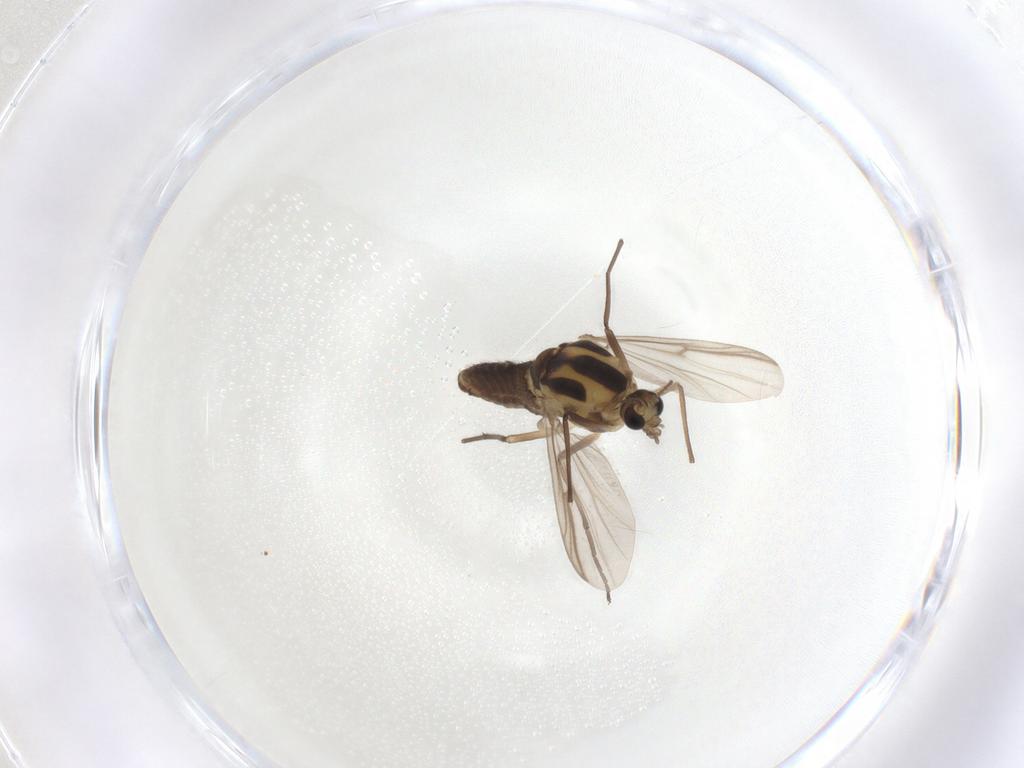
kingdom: Animalia
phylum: Arthropoda
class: Insecta
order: Diptera
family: Chironomidae
